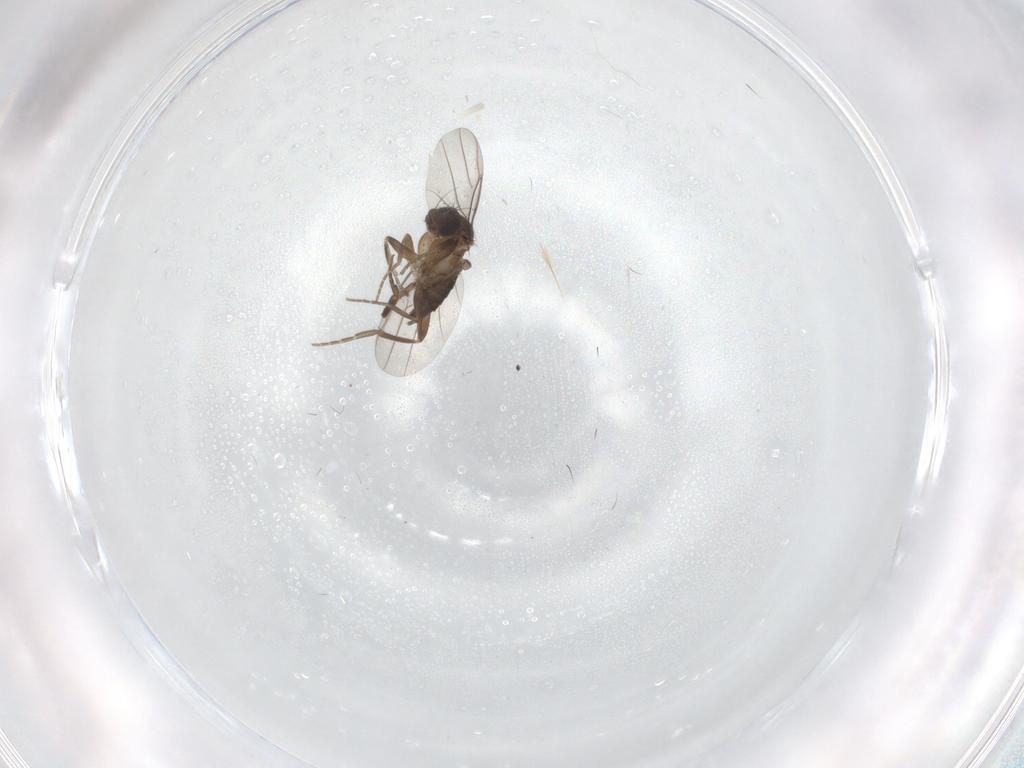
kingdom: Animalia
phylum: Arthropoda
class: Insecta
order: Diptera
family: Phoridae
